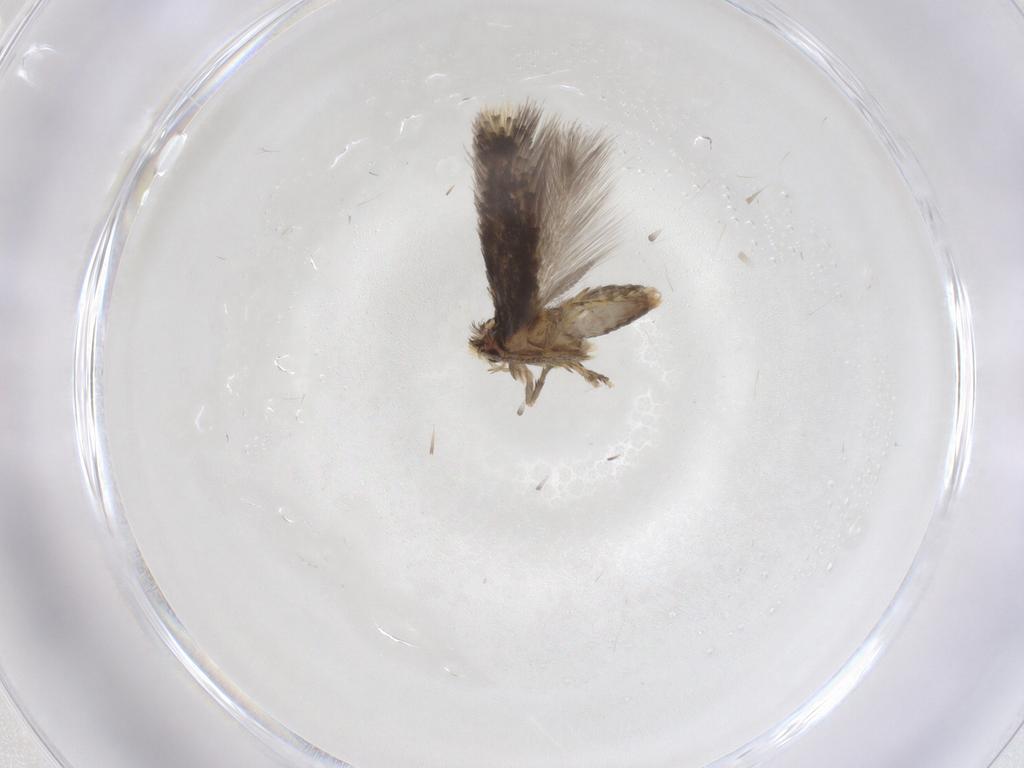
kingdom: Animalia
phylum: Arthropoda
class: Insecta
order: Lepidoptera
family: Nepticulidae
